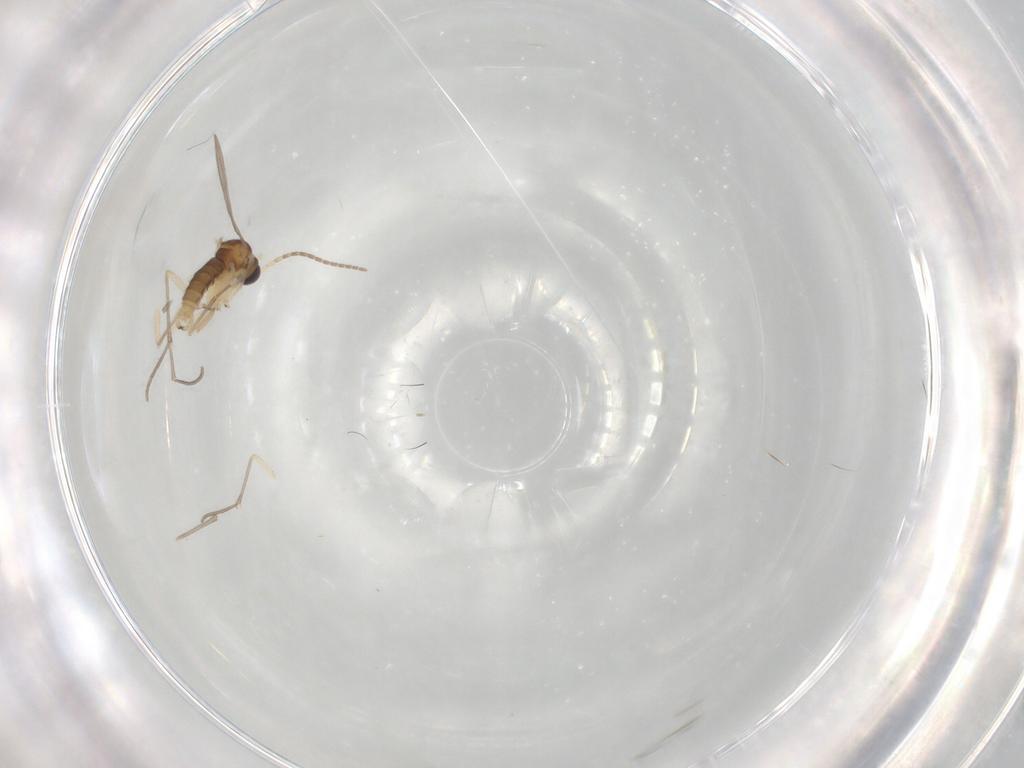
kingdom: Animalia
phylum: Arthropoda
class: Insecta
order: Diptera
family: Sciaridae
